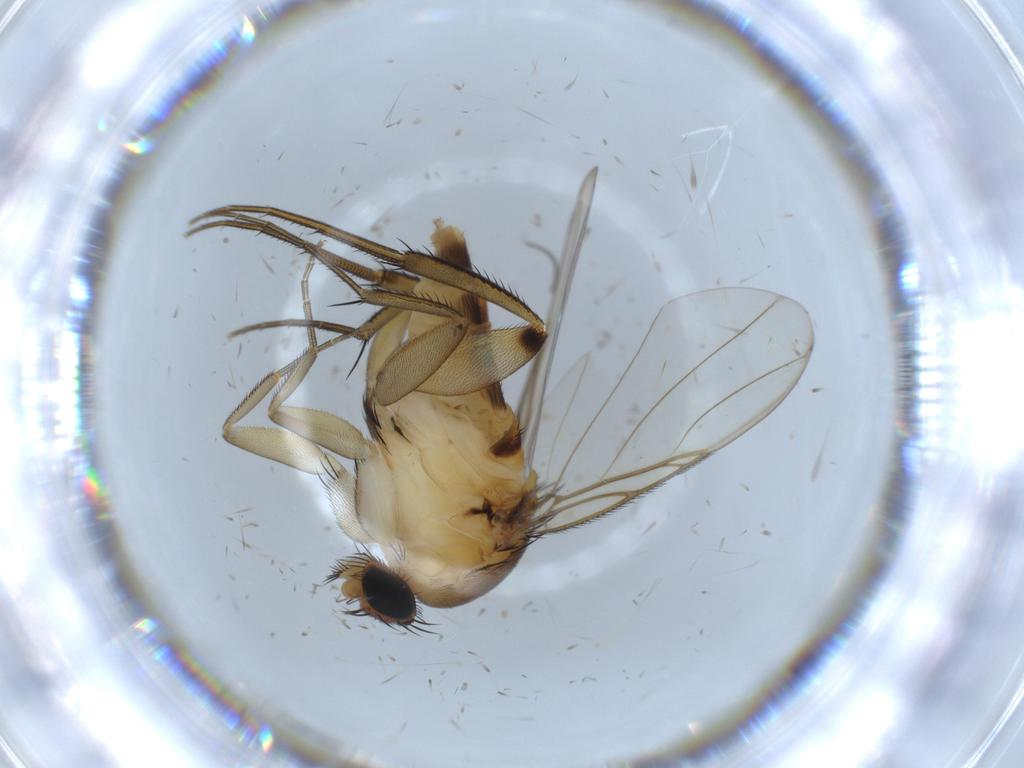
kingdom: Animalia
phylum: Arthropoda
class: Insecta
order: Diptera
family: Phoridae
